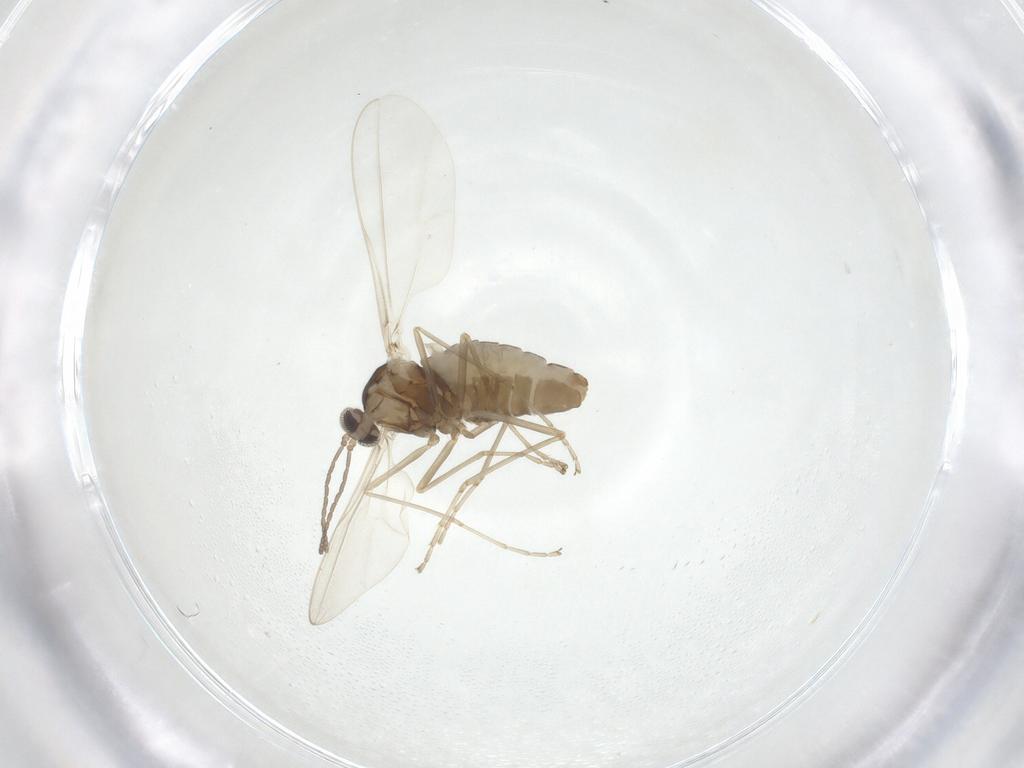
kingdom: Animalia
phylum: Arthropoda
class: Insecta
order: Diptera
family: Cecidomyiidae
